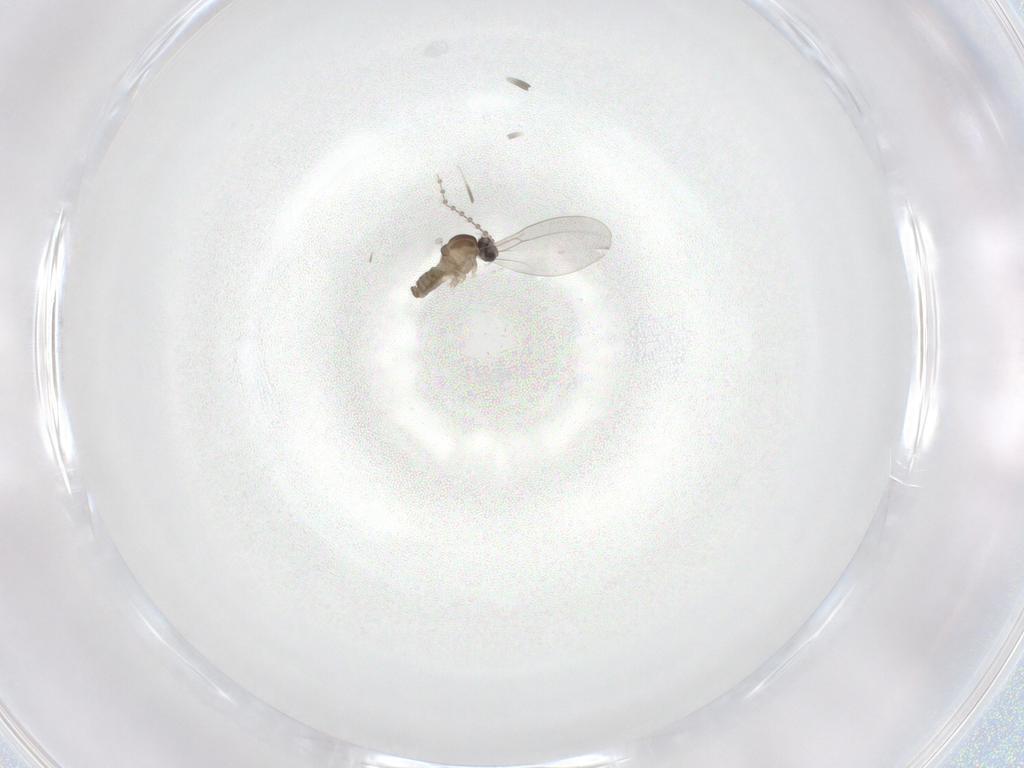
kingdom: Animalia
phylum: Arthropoda
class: Insecta
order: Diptera
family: Cecidomyiidae
